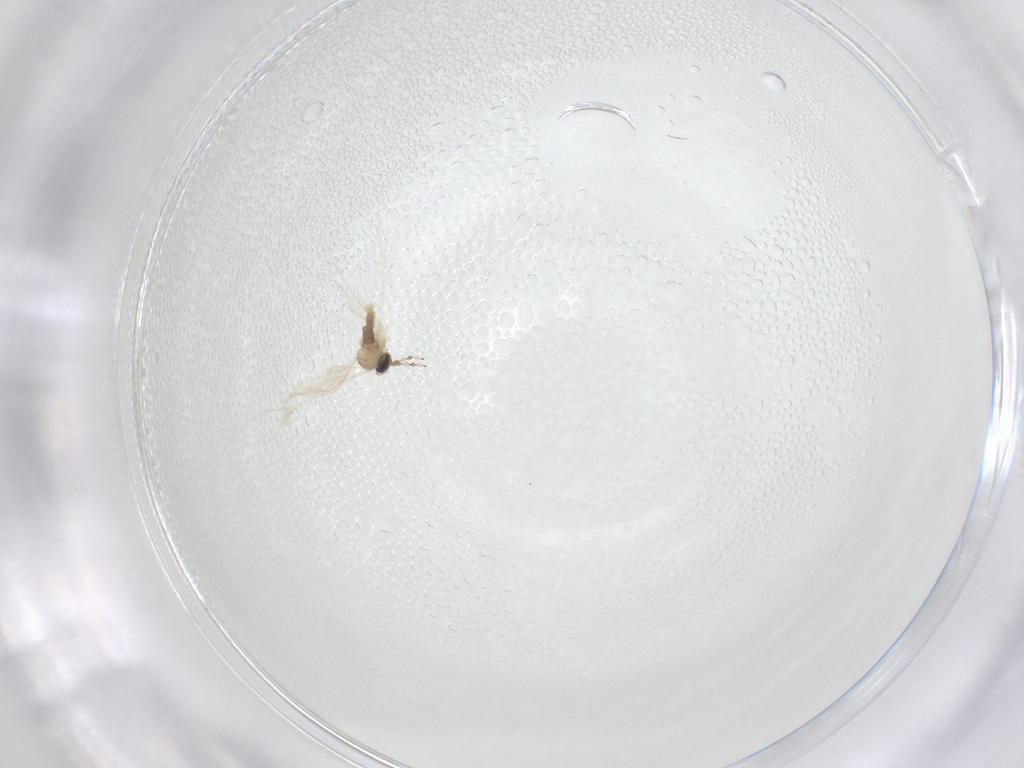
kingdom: Animalia
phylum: Arthropoda
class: Insecta
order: Diptera
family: Cecidomyiidae
